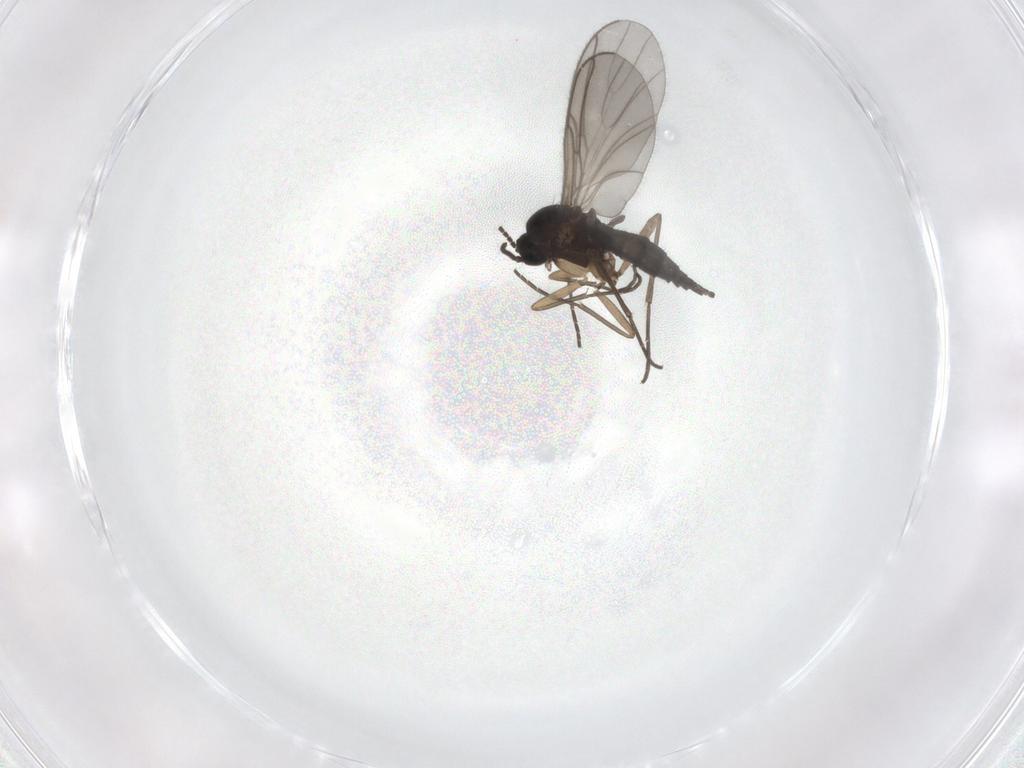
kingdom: Animalia
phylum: Arthropoda
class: Insecta
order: Diptera
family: Sciaridae
